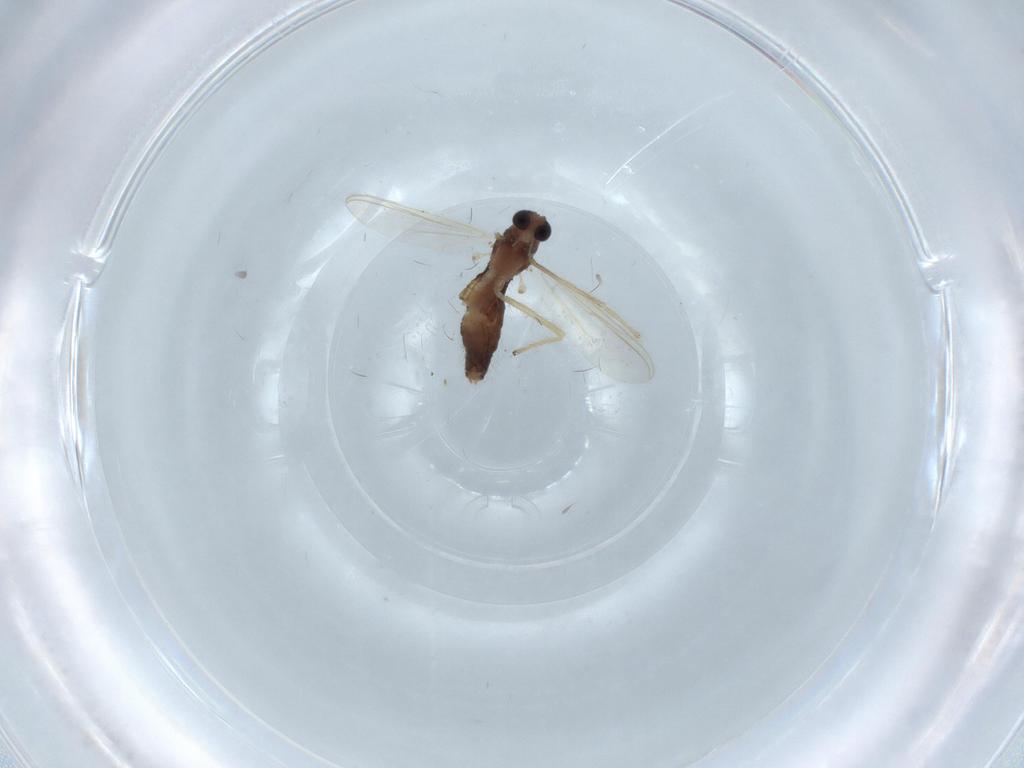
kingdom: Animalia
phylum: Arthropoda
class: Insecta
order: Diptera
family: Chironomidae
